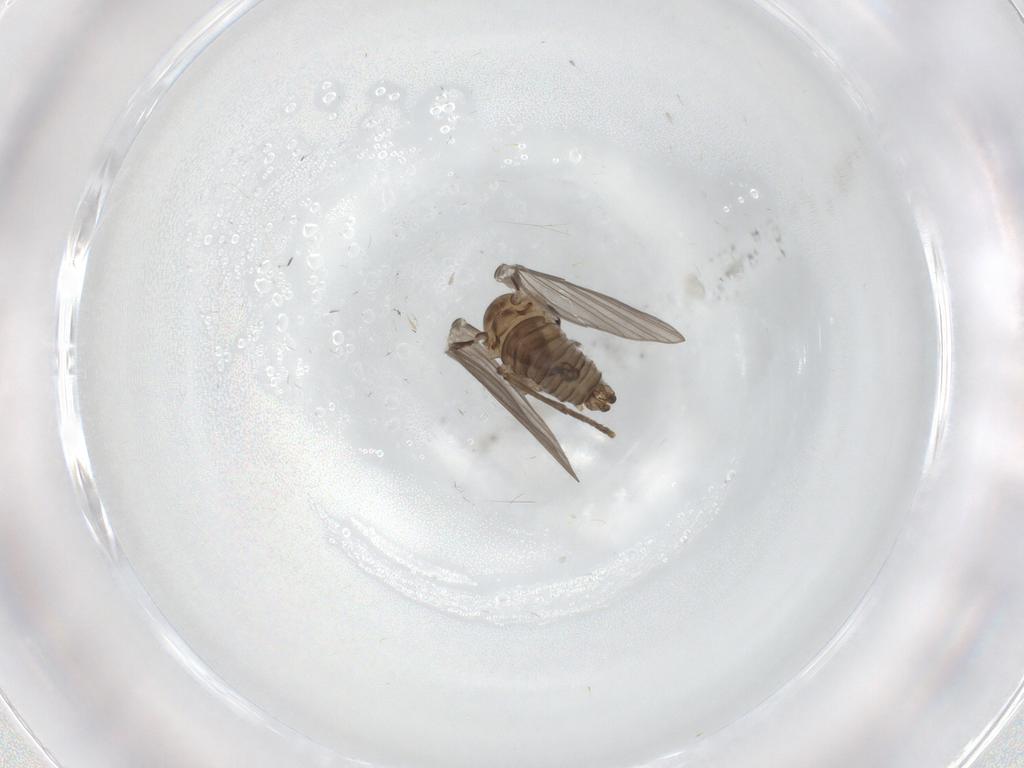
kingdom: Animalia
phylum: Arthropoda
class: Insecta
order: Diptera
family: Psychodidae
